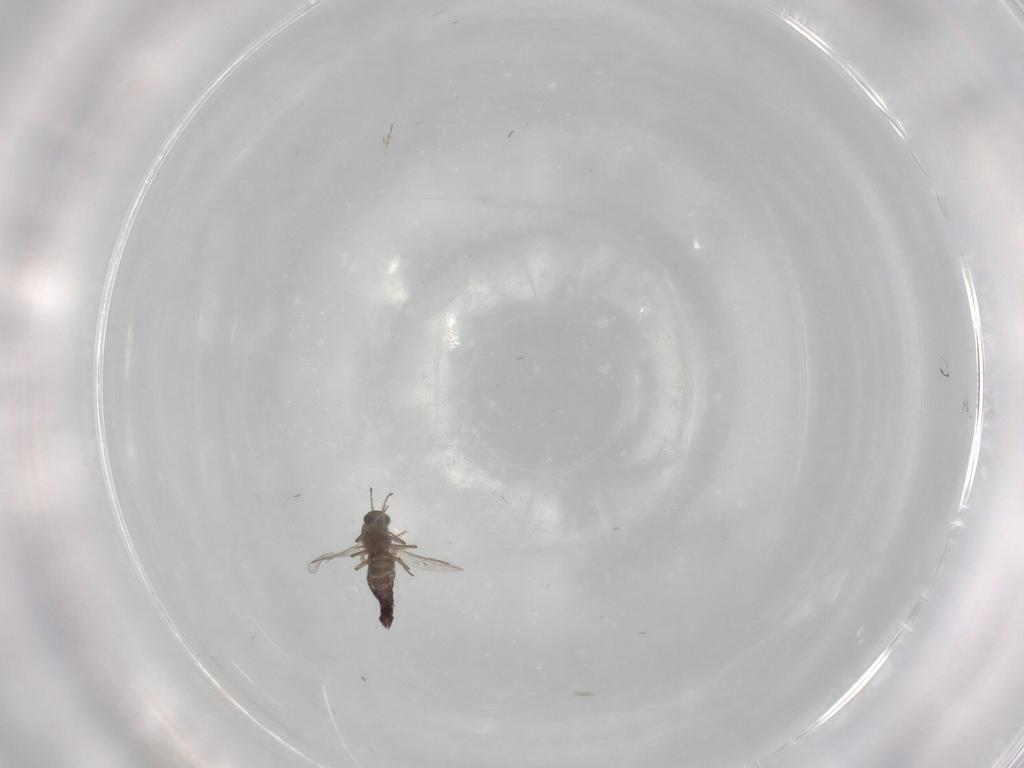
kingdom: Animalia
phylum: Arthropoda
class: Insecta
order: Diptera
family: Chironomidae
